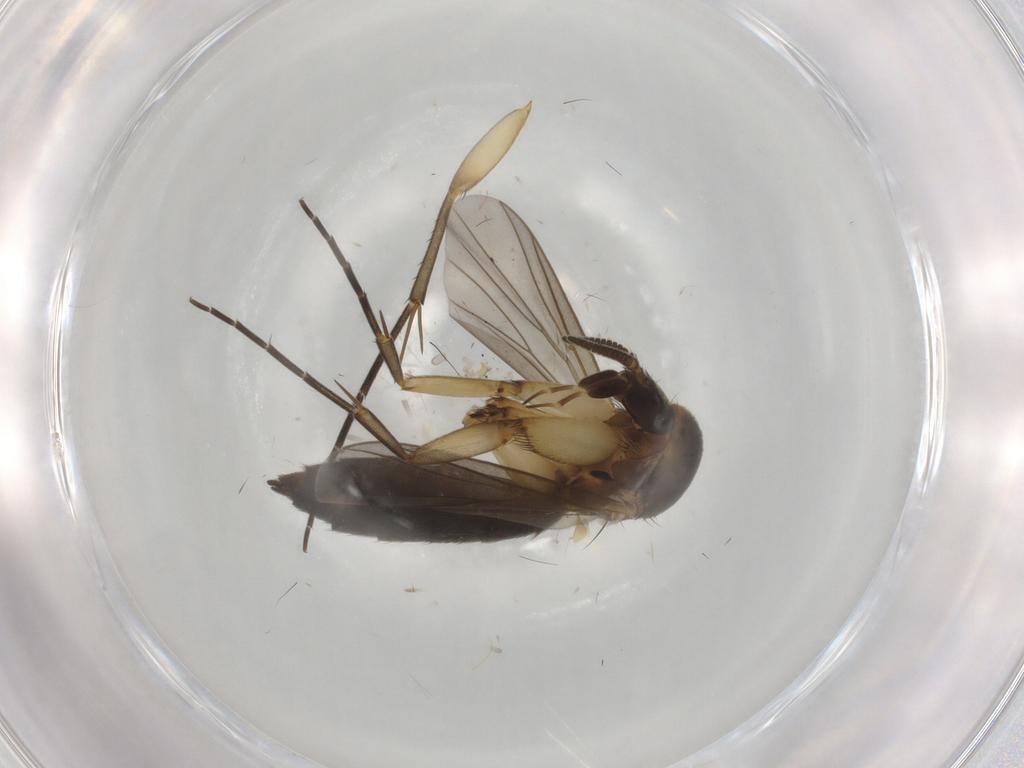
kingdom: Animalia
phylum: Arthropoda
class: Insecta
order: Diptera
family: Mycetophilidae
